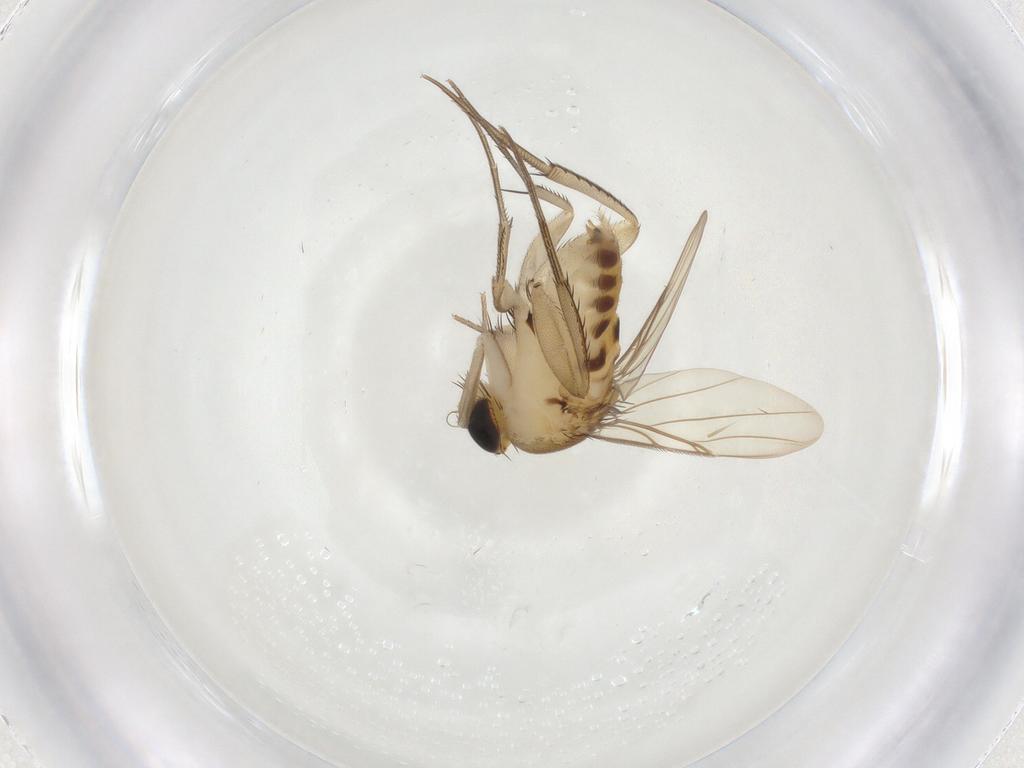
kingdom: Animalia
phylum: Arthropoda
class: Insecta
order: Diptera
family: Phoridae
